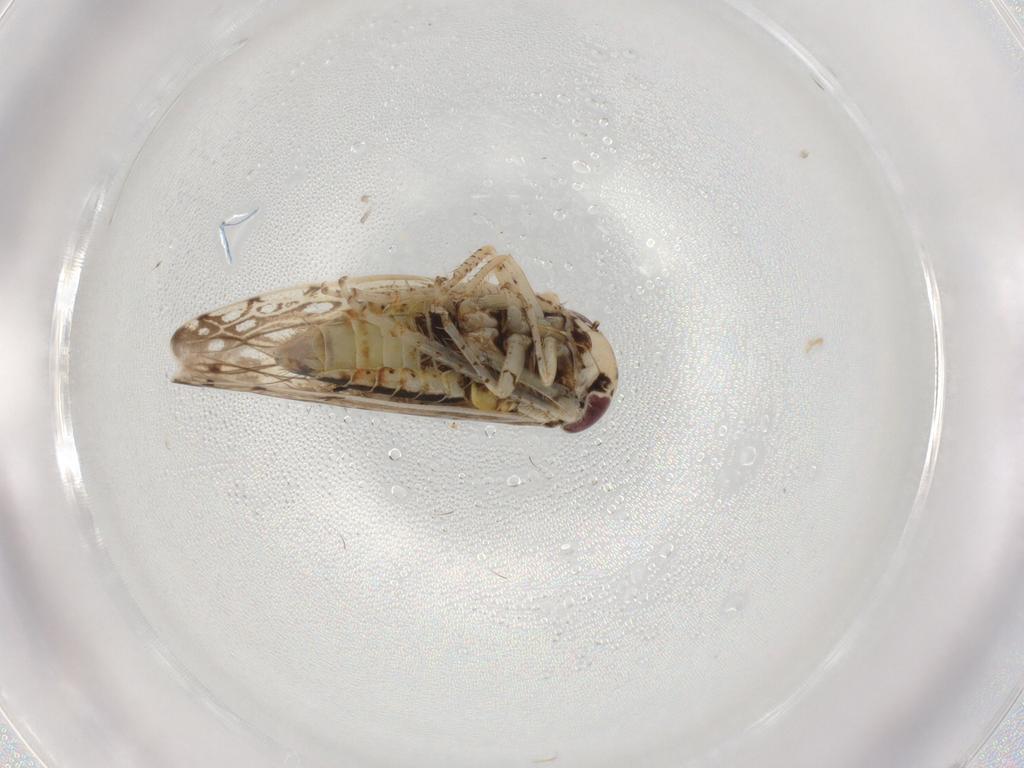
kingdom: Animalia
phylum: Arthropoda
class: Insecta
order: Hemiptera
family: Cicadellidae
